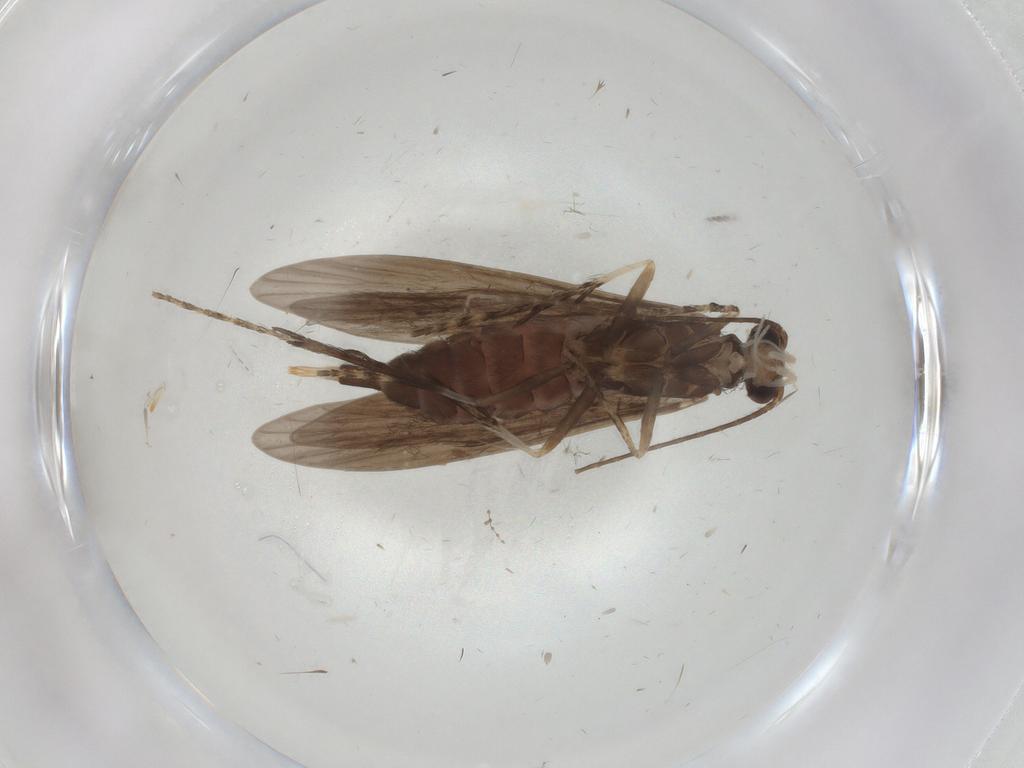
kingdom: Animalia
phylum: Arthropoda
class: Insecta
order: Trichoptera
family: Xiphocentronidae
